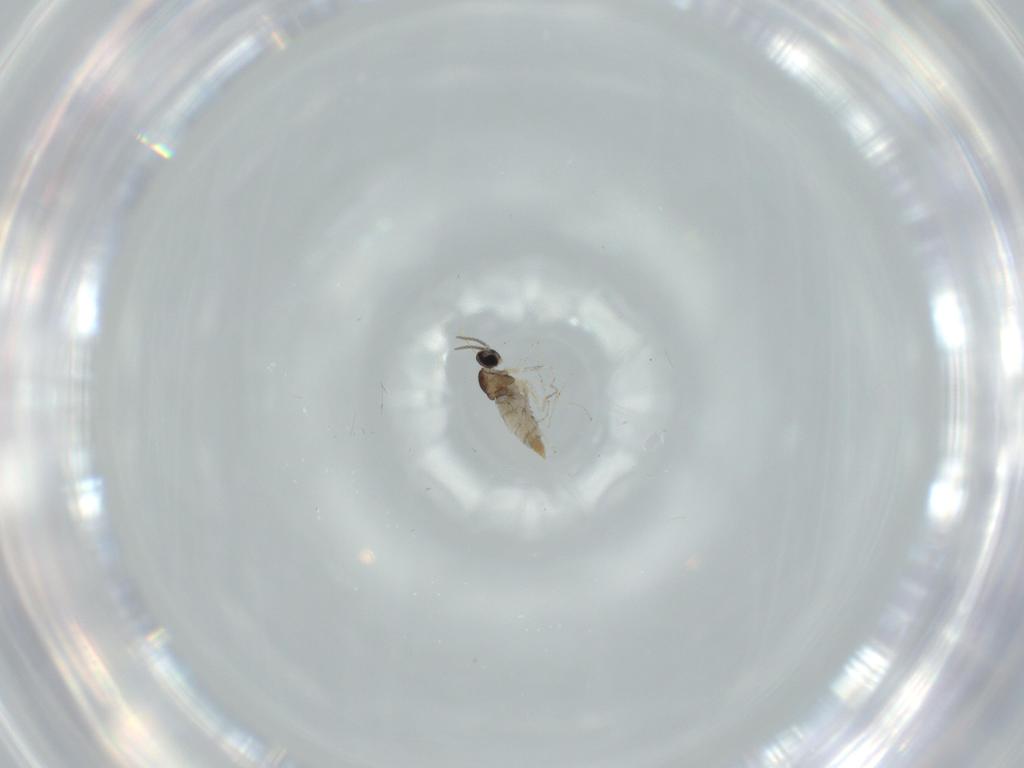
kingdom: Animalia
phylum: Arthropoda
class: Insecta
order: Diptera
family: Cecidomyiidae
